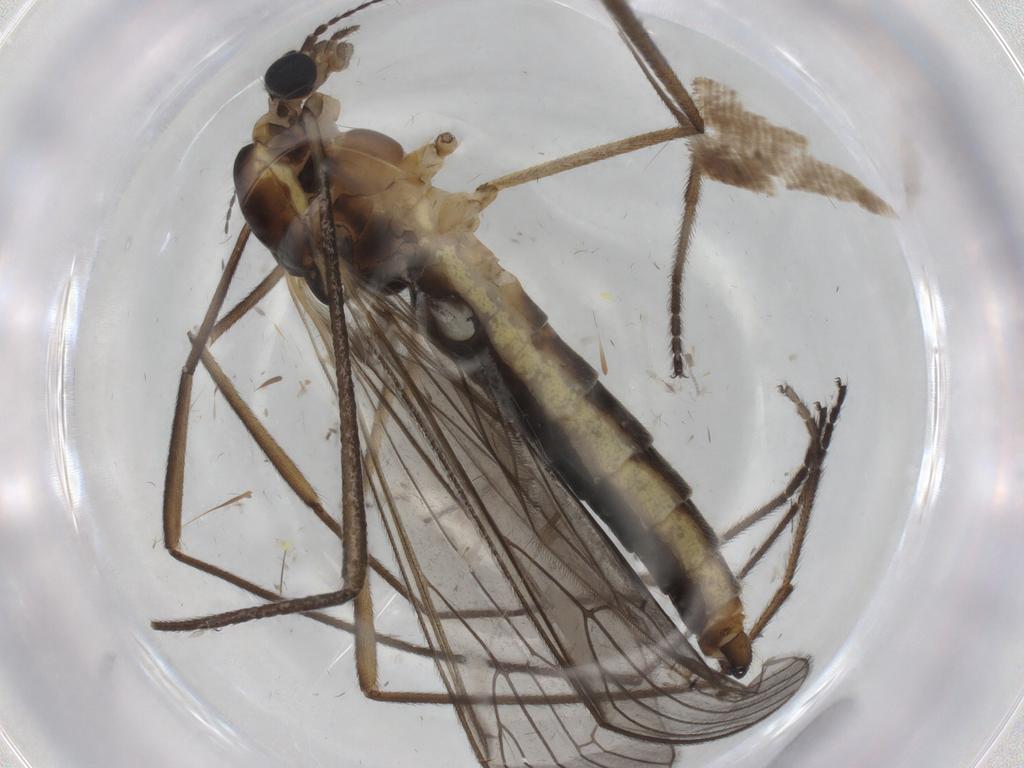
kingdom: Animalia
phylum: Arthropoda
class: Insecta
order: Diptera
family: Limoniidae
